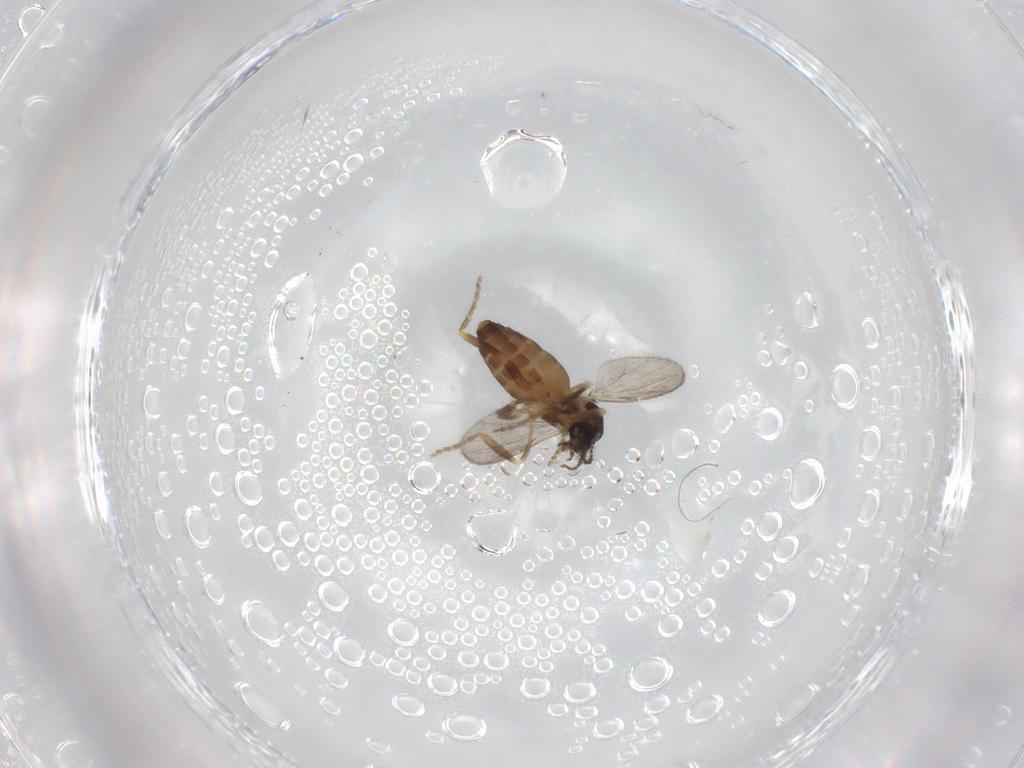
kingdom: Animalia
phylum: Arthropoda
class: Insecta
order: Diptera
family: Ceratopogonidae
